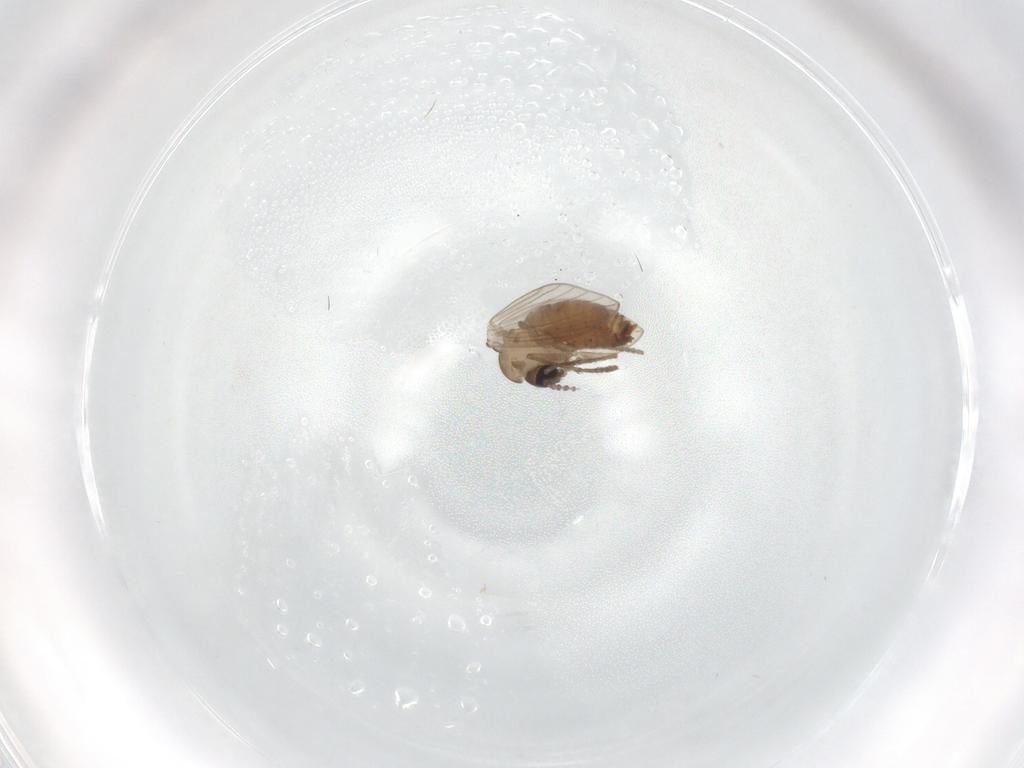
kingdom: Animalia
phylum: Arthropoda
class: Insecta
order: Diptera
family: Psychodidae
